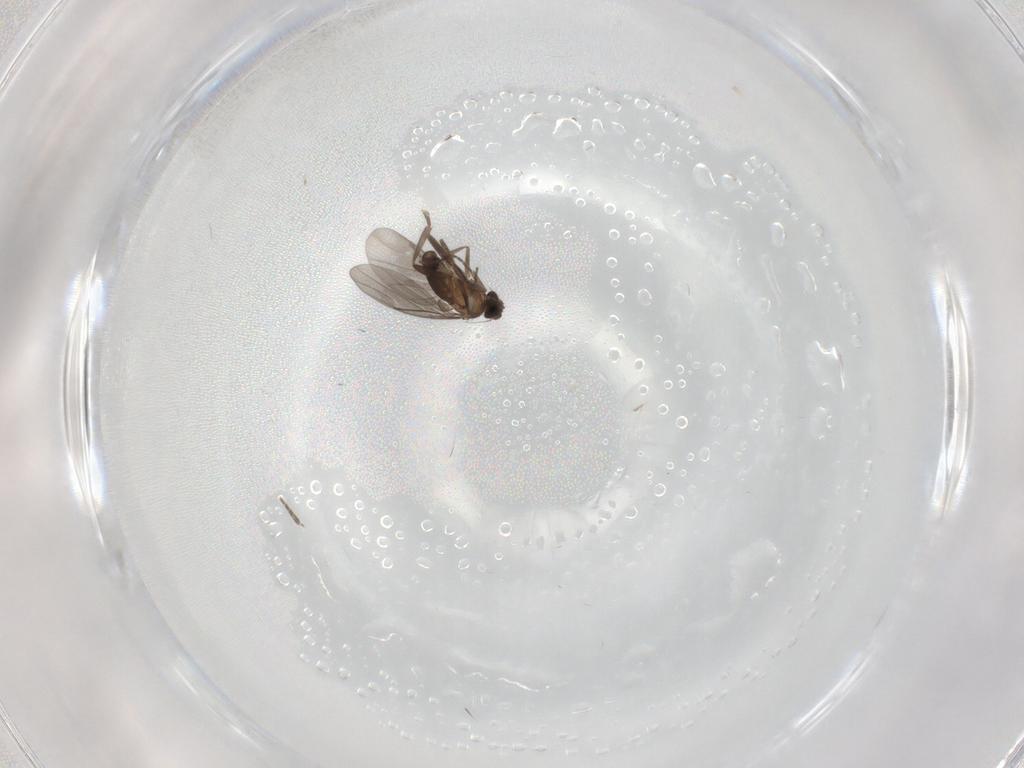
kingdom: Animalia
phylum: Arthropoda
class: Insecta
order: Diptera
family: Phoridae
